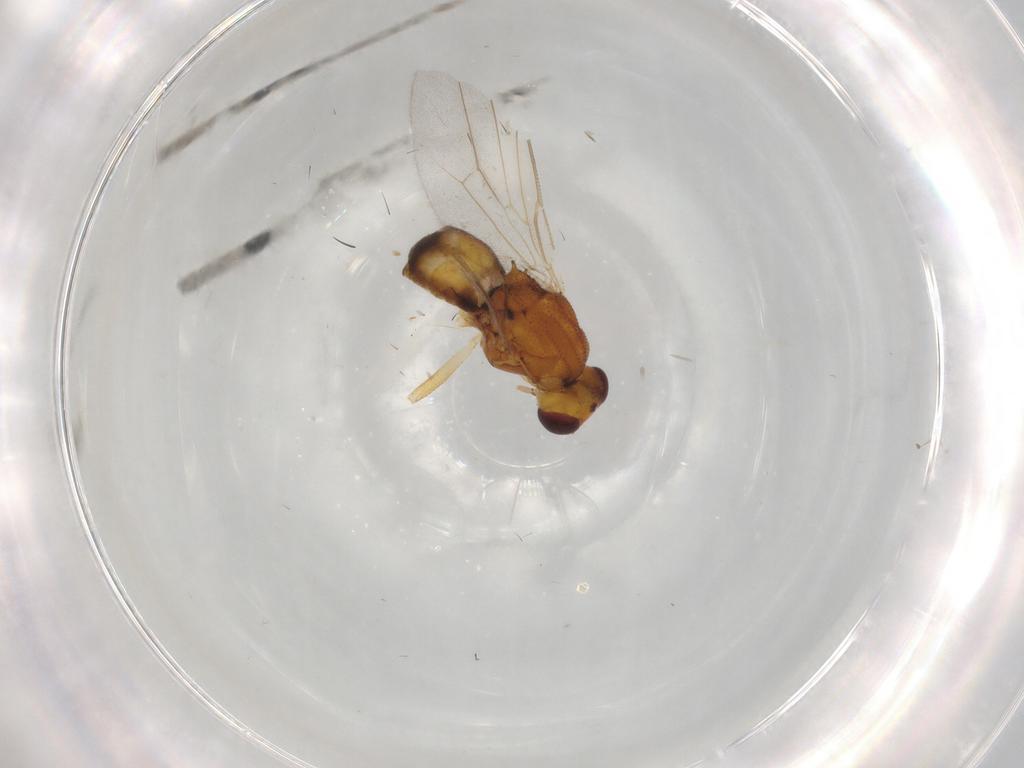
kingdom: Animalia
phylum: Arthropoda
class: Insecta
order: Diptera
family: Chloropidae
